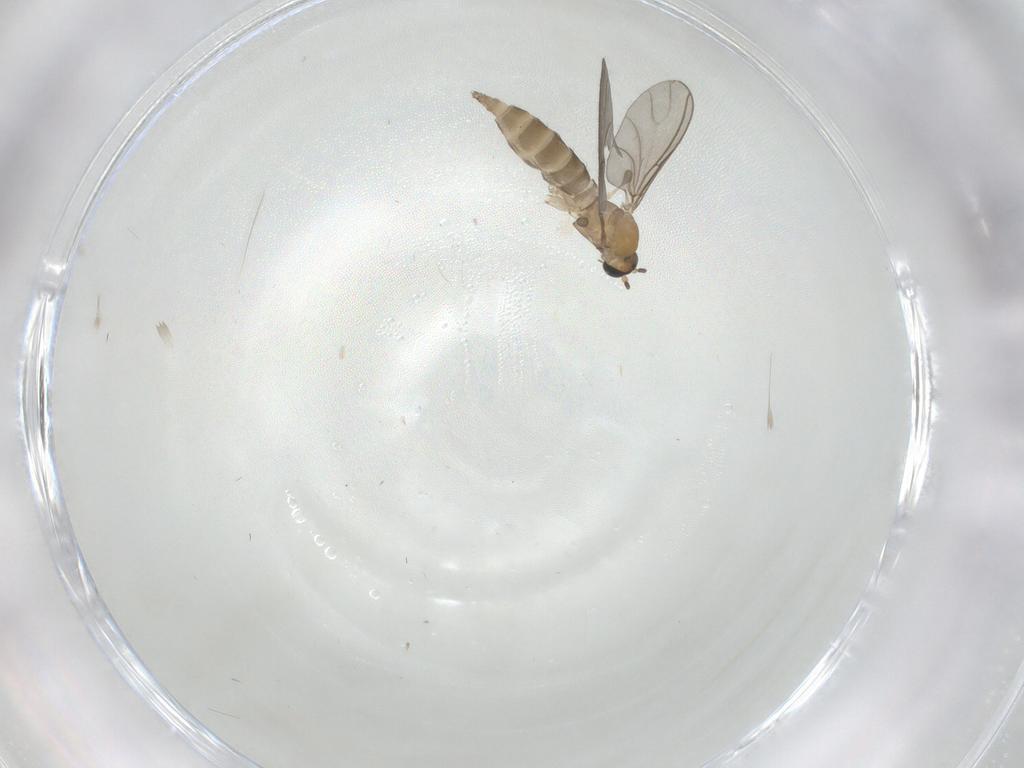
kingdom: Animalia
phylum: Arthropoda
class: Insecta
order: Diptera
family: Sciaridae
